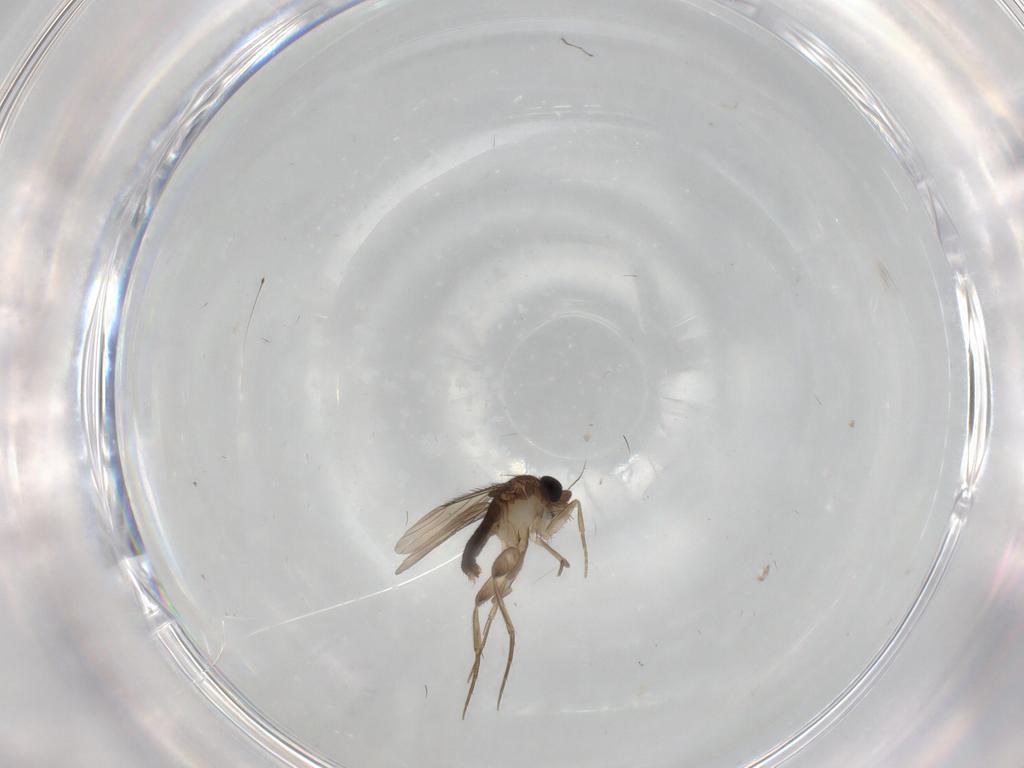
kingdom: Animalia
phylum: Arthropoda
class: Insecta
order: Diptera
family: Phoridae
